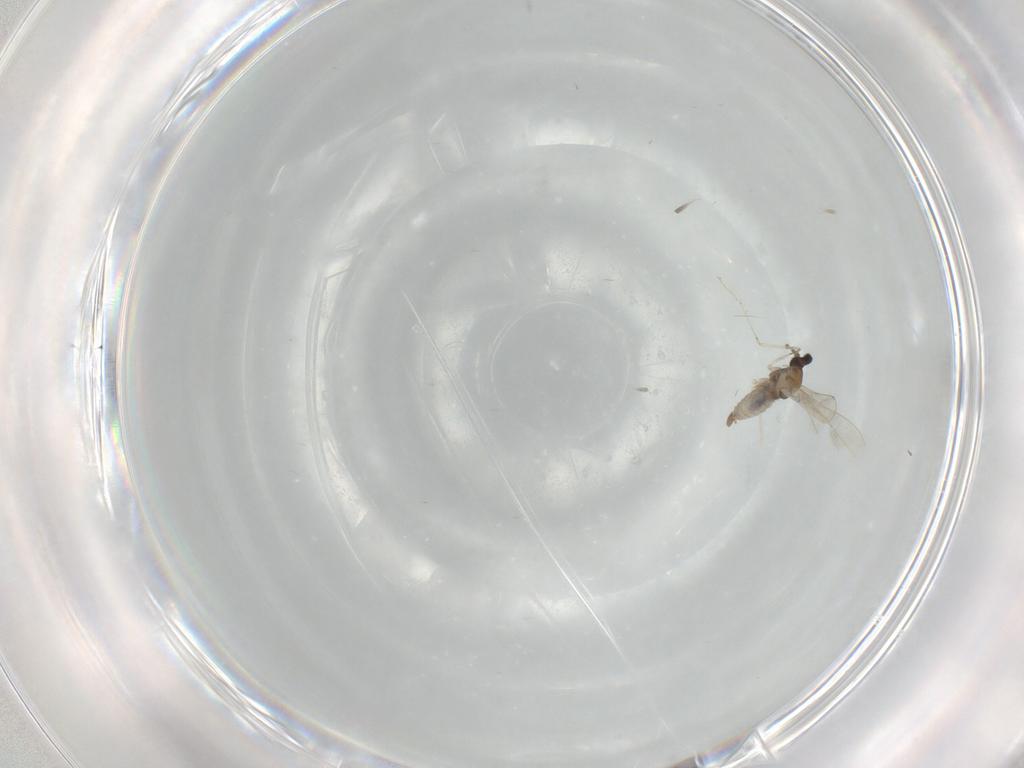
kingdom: Animalia
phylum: Arthropoda
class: Insecta
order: Diptera
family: Cecidomyiidae
